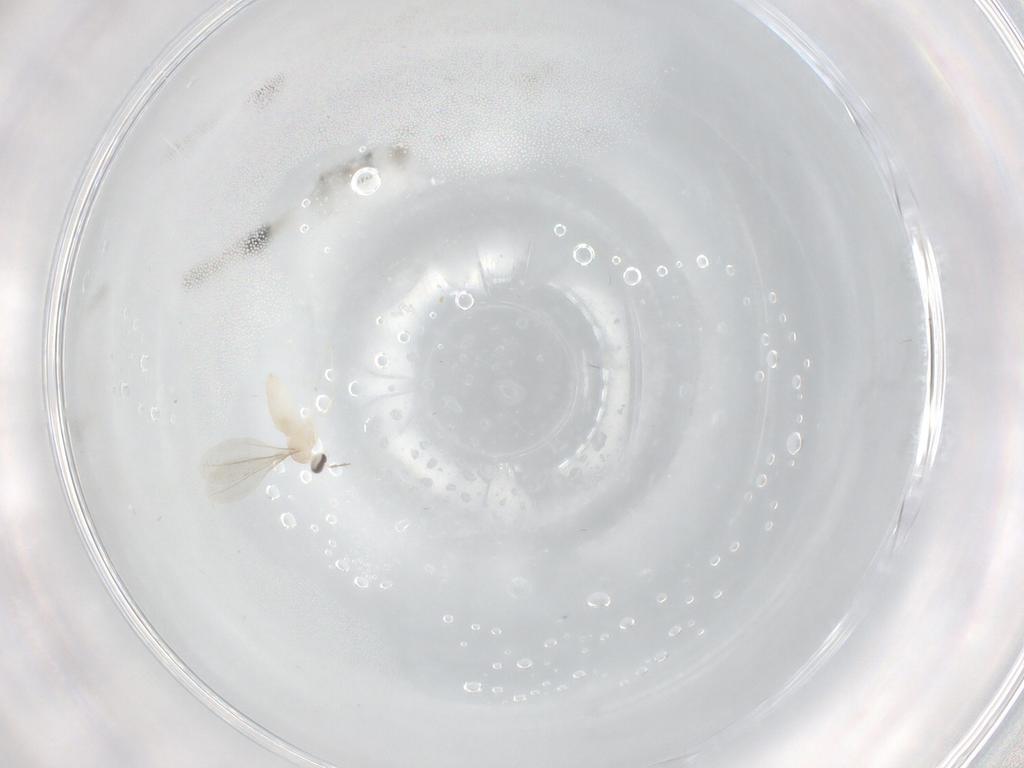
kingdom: Animalia
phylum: Arthropoda
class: Insecta
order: Diptera
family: Cecidomyiidae
